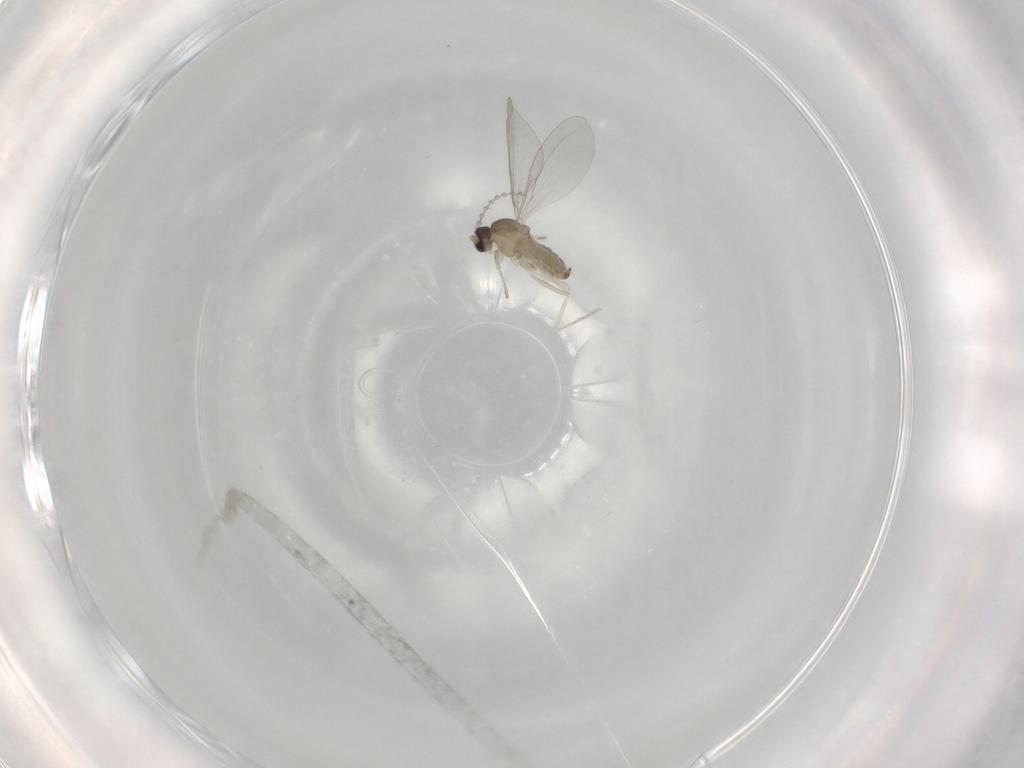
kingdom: Animalia
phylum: Arthropoda
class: Insecta
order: Diptera
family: Cecidomyiidae
